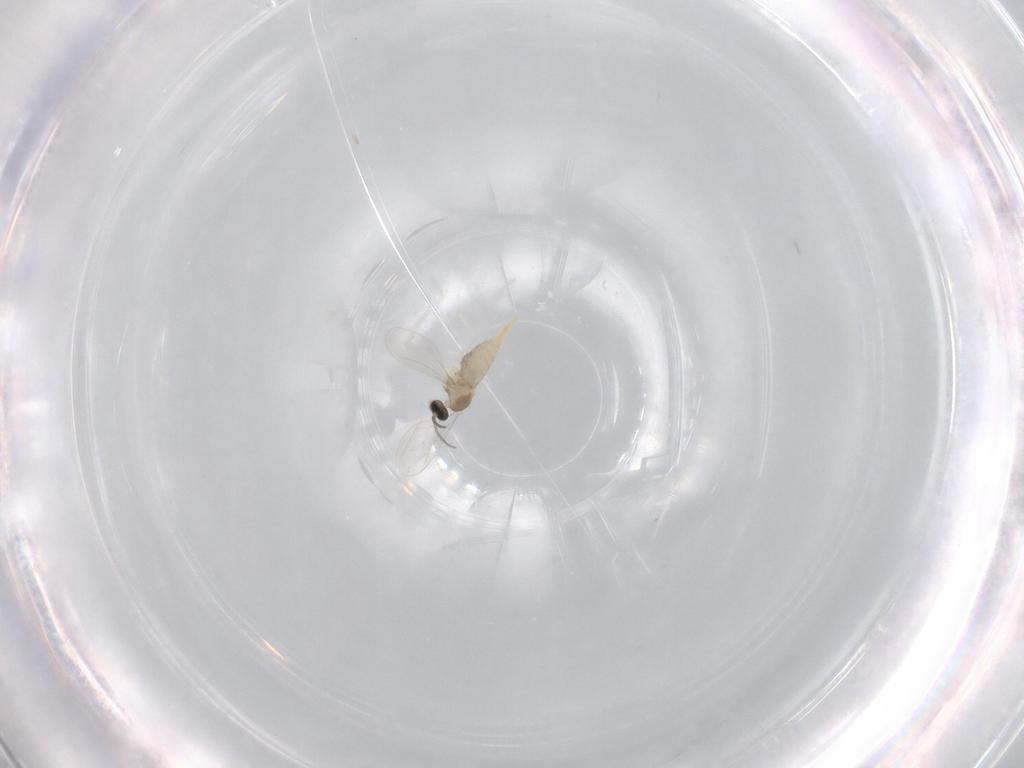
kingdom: Animalia
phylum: Arthropoda
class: Insecta
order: Diptera
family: Cecidomyiidae
